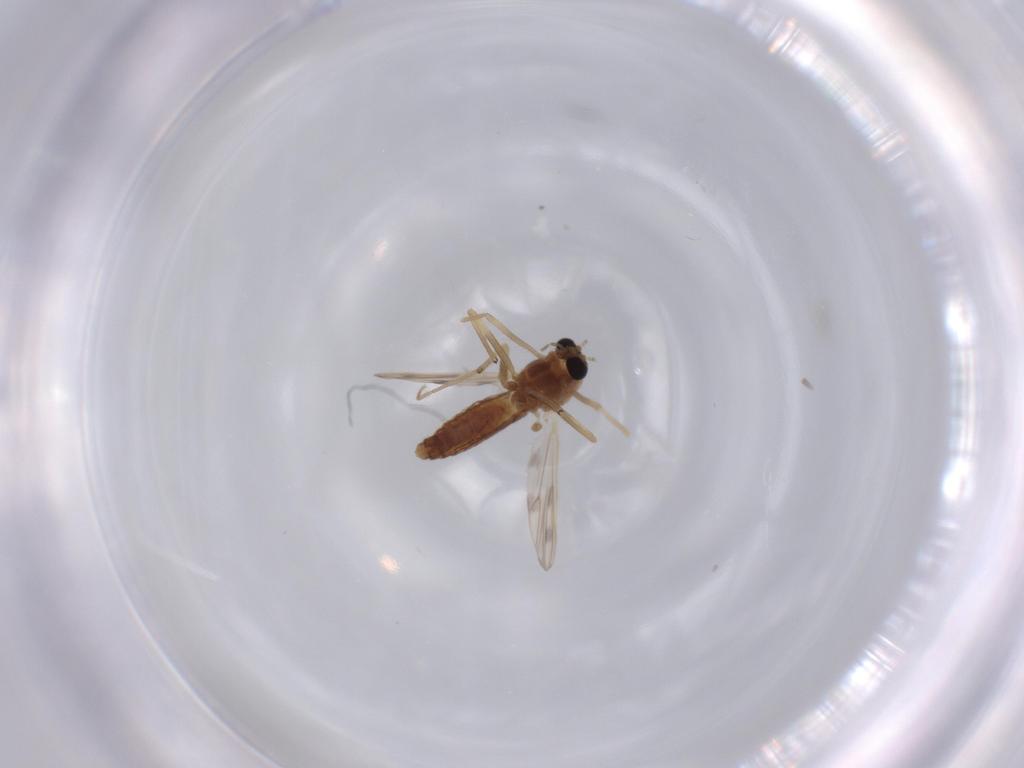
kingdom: Animalia
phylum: Arthropoda
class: Insecta
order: Diptera
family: Chironomidae
